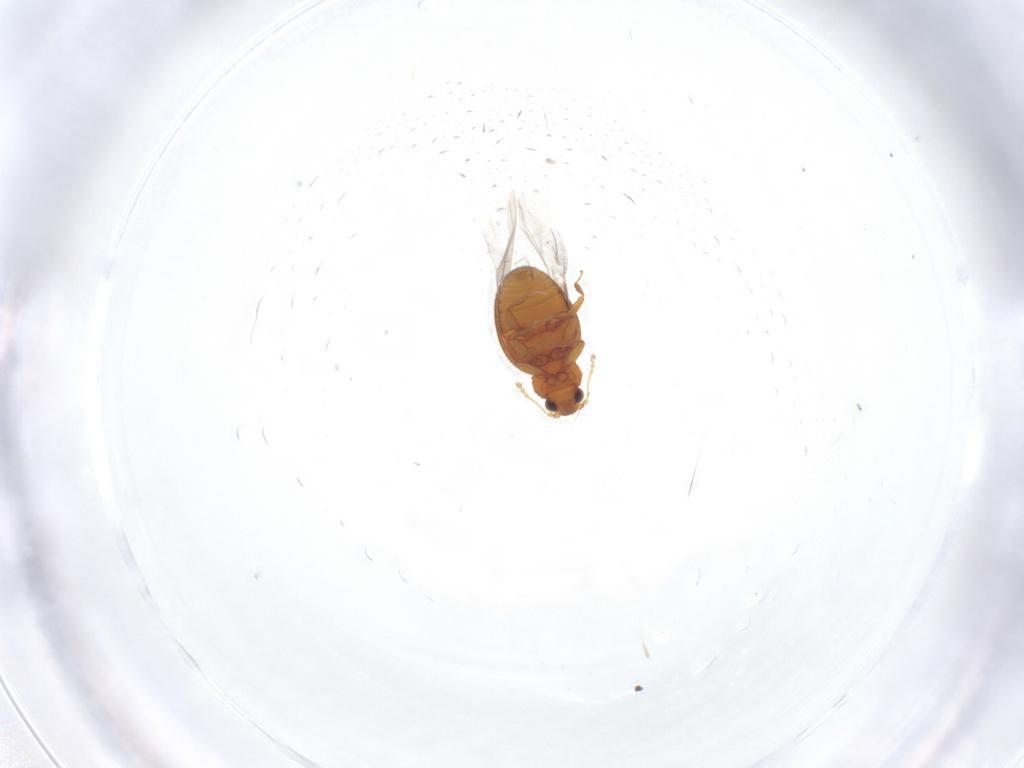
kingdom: Animalia
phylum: Arthropoda
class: Insecta
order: Coleoptera
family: Latridiidae
